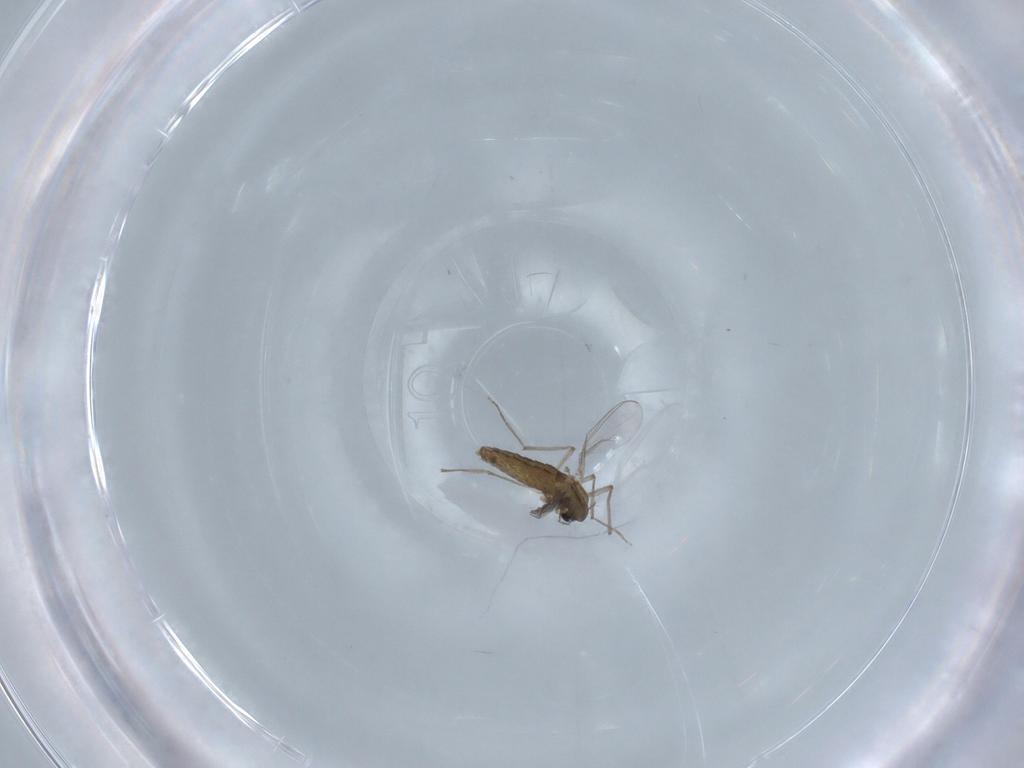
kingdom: Animalia
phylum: Arthropoda
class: Insecta
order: Diptera
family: Chironomidae
